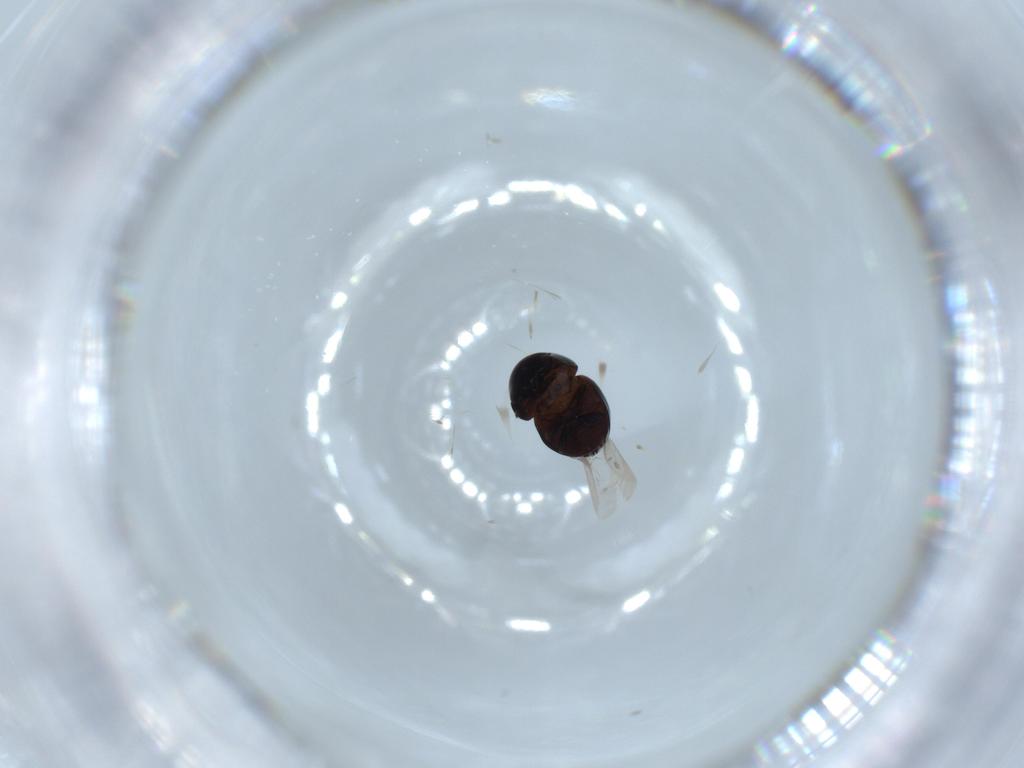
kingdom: Animalia
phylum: Arthropoda
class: Insecta
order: Coleoptera
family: Cybocephalidae
